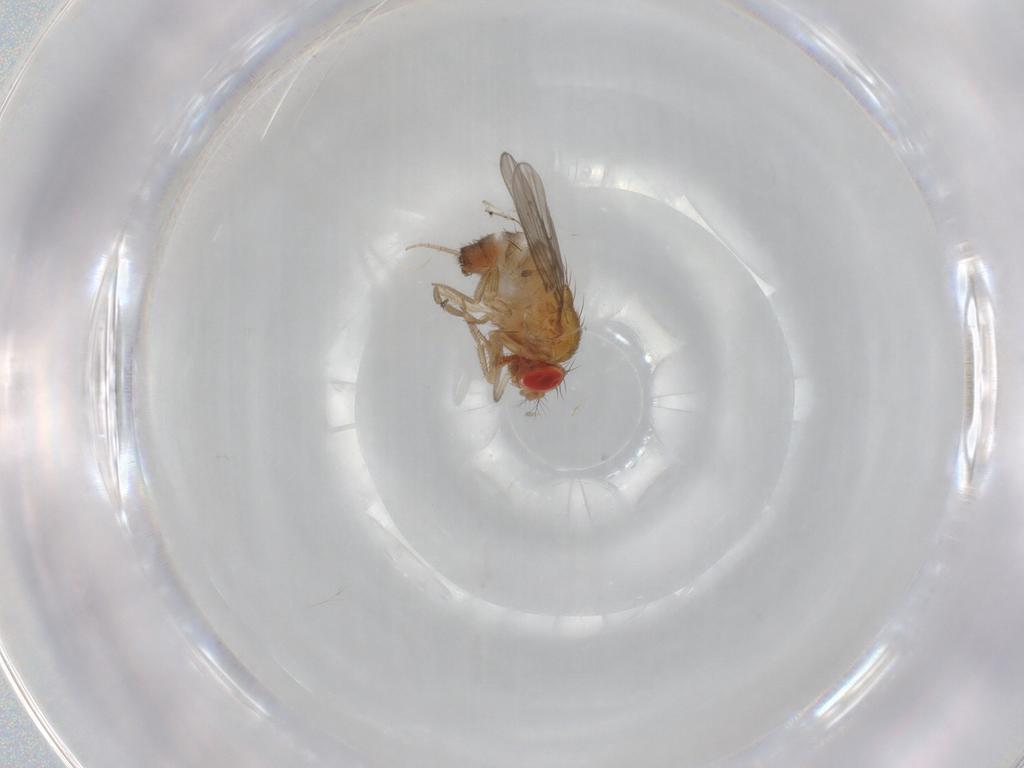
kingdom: Animalia
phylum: Arthropoda
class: Insecta
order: Diptera
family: Drosophilidae
